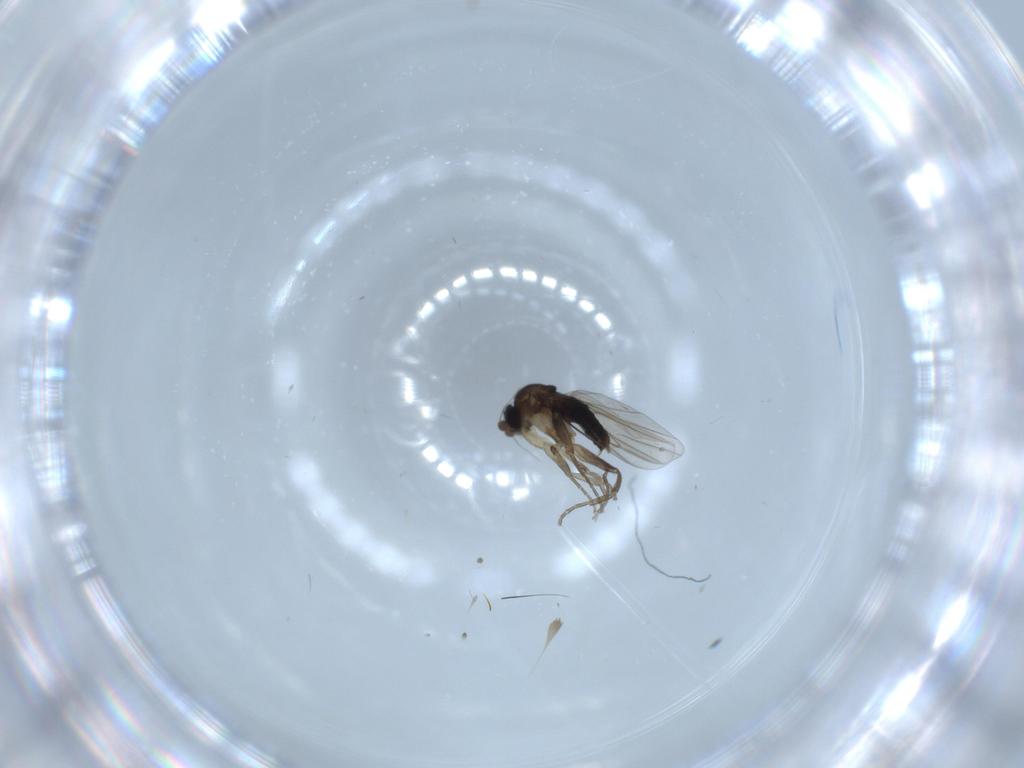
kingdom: Animalia
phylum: Arthropoda
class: Insecta
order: Diptera
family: Phoridae
